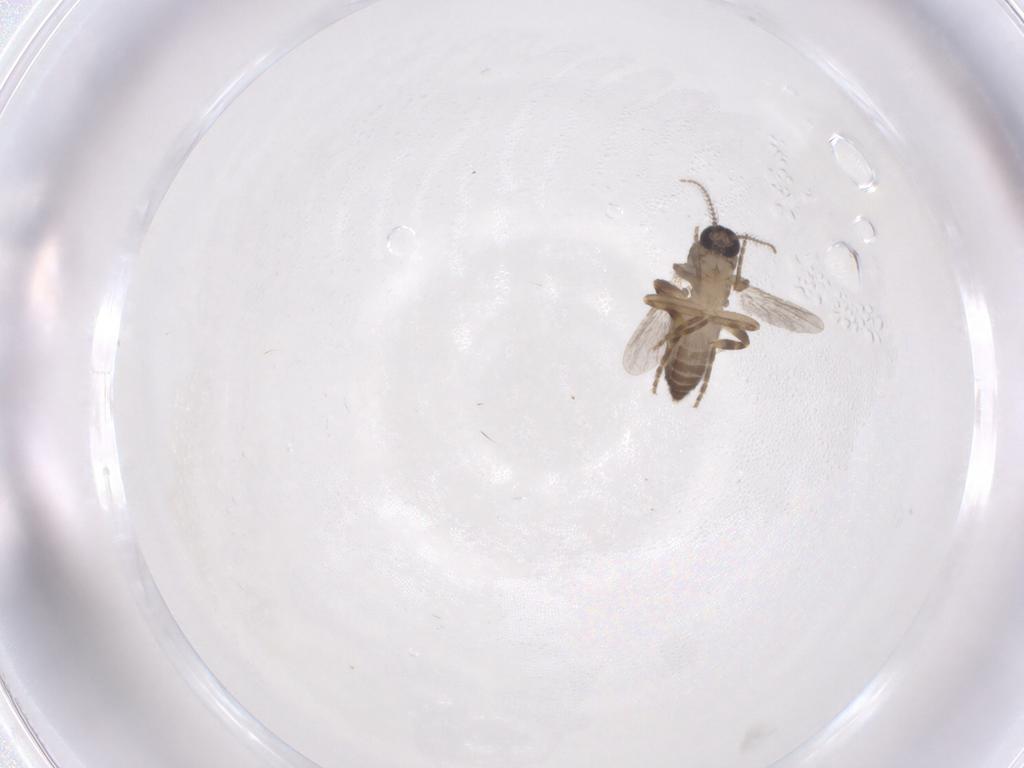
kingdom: Animalia
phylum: Arthropoda
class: Insecta
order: Diptera
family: Ceratopogonidae
